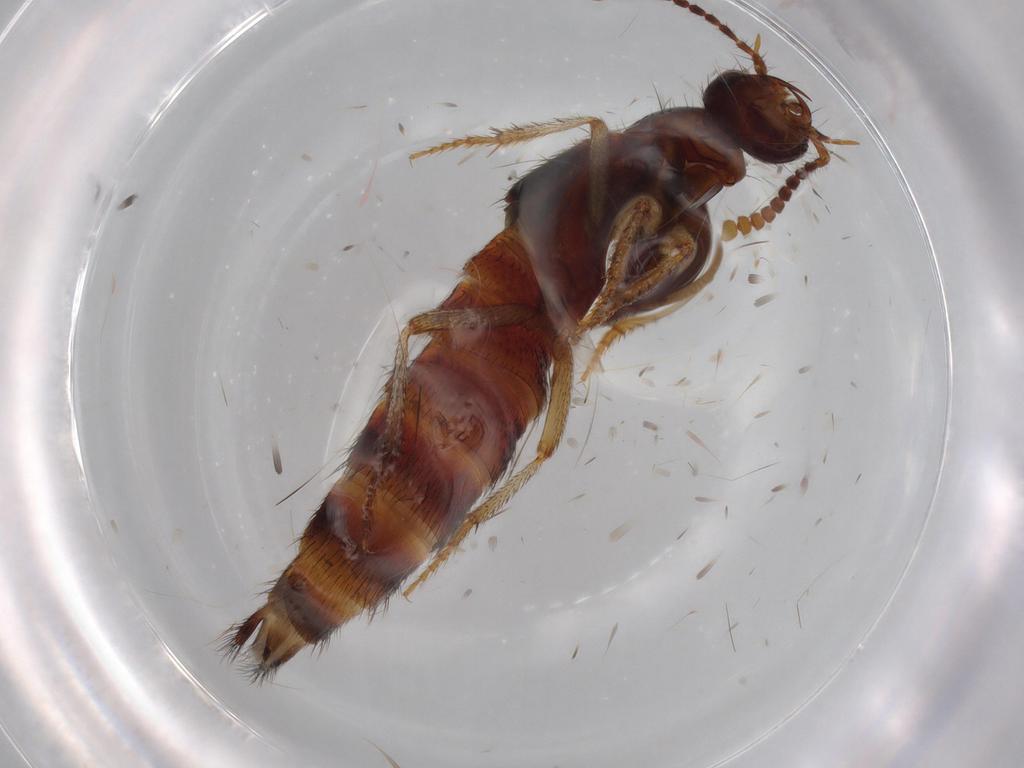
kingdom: Animalia
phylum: Arthropoda
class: Insecta
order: Coleoptera
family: Staphylinidae
